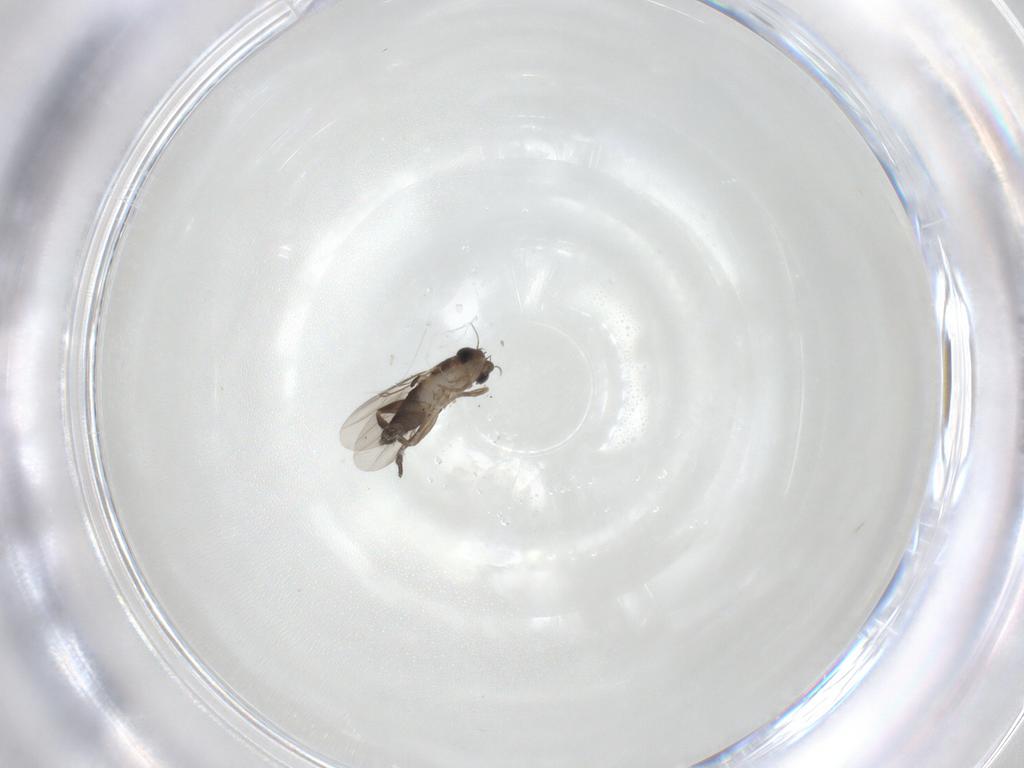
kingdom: Animalia
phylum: Arthropoda
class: Insecta
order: Diptera
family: Phoridae
